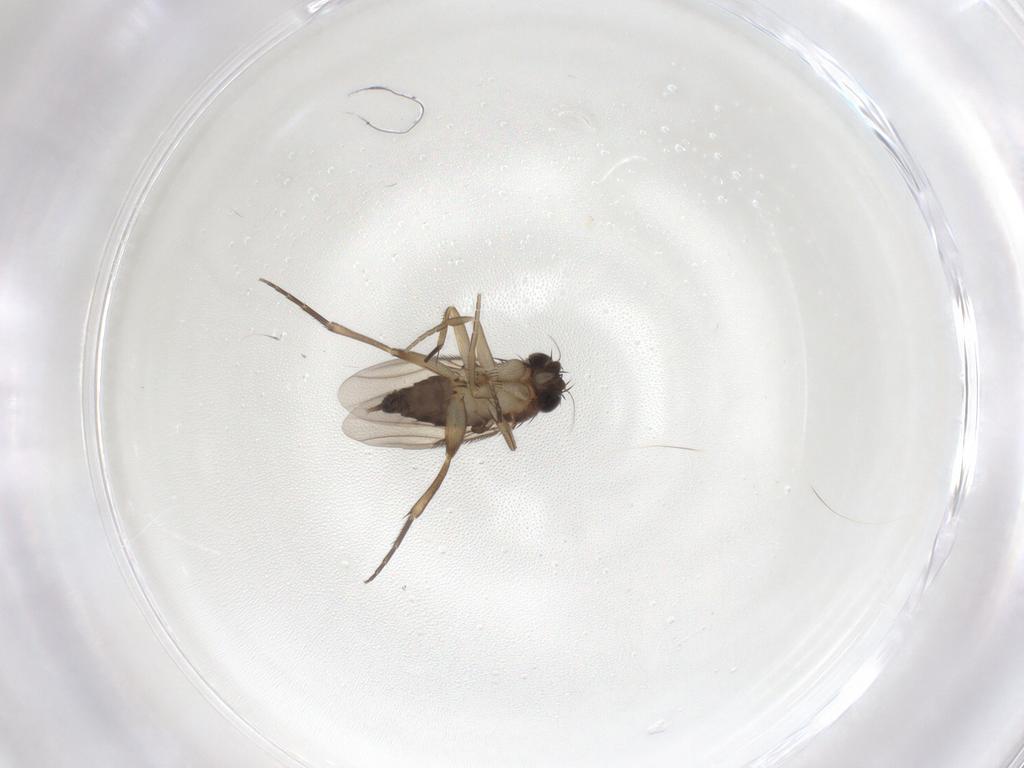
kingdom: Animalia
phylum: Arthropoda
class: Insecta
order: Diptera
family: Phoridae
